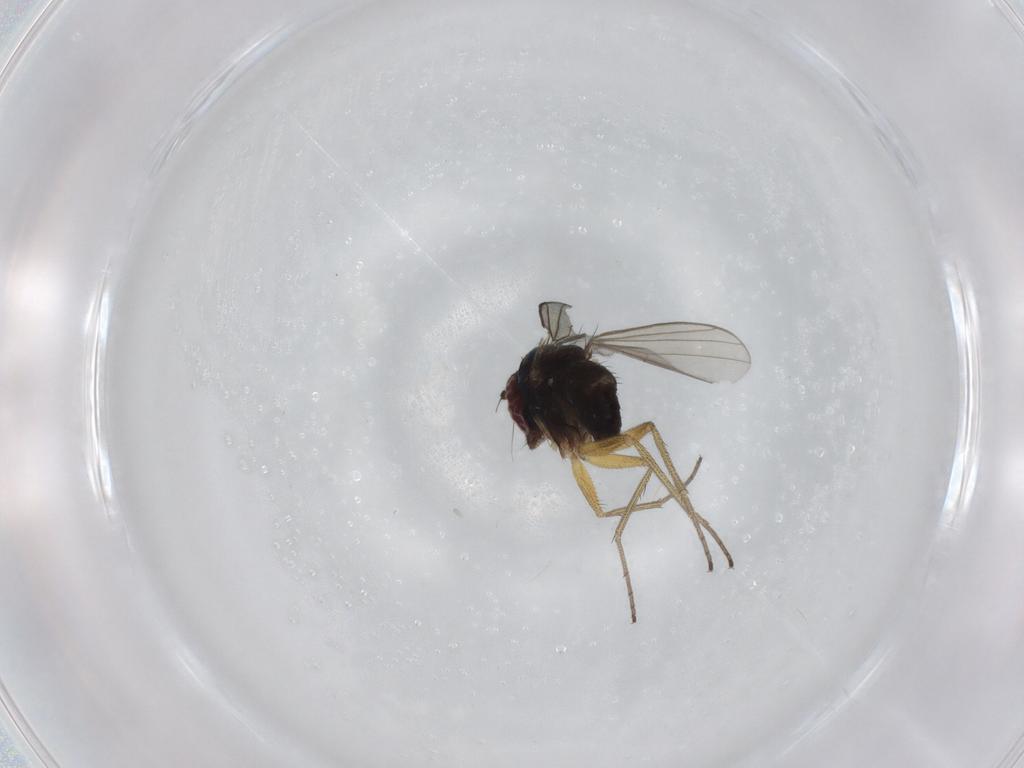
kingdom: Animalia
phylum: Arthropoda
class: Insecta
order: Diptera
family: Dolichopodidae
